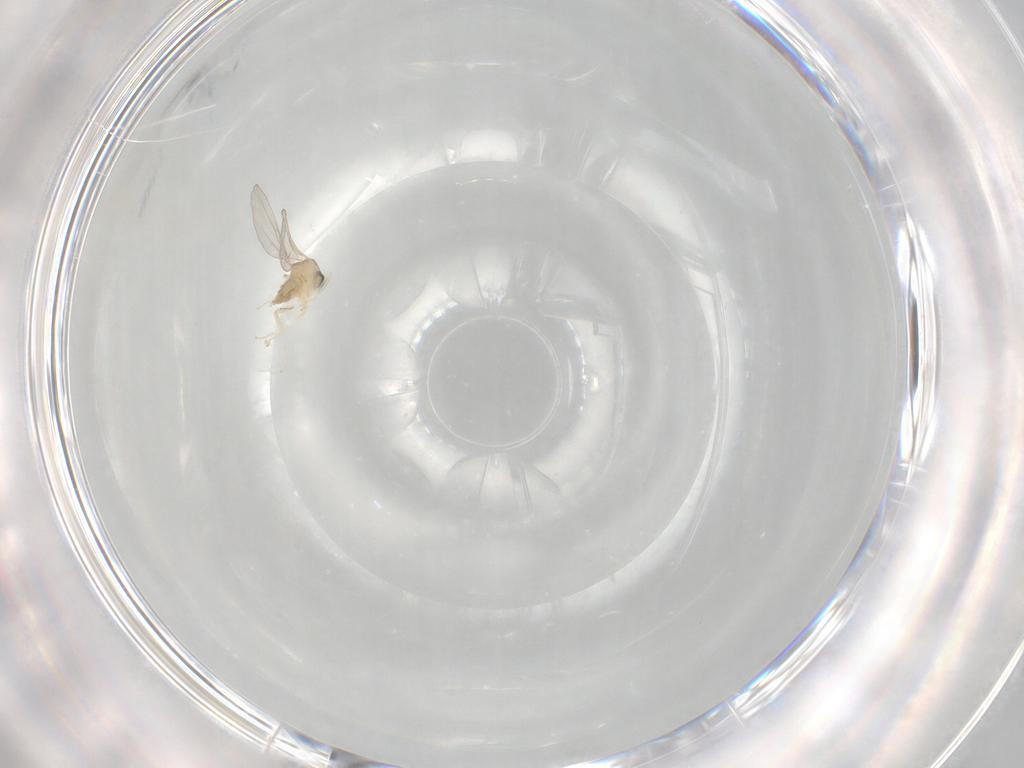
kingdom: Animalia
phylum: Arthropoda
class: Insecta
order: Diptera
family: Cecidomyiidae
